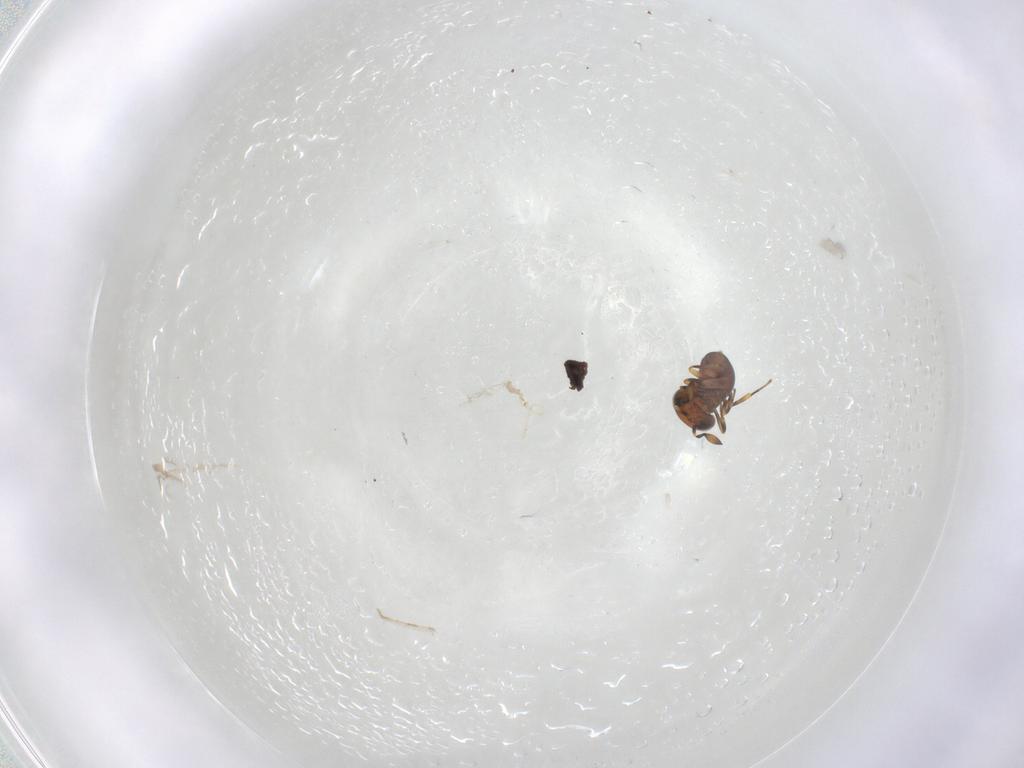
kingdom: Animalia
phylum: Arthropoda
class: Insecta
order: Hymenoptera
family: Scelionidae
